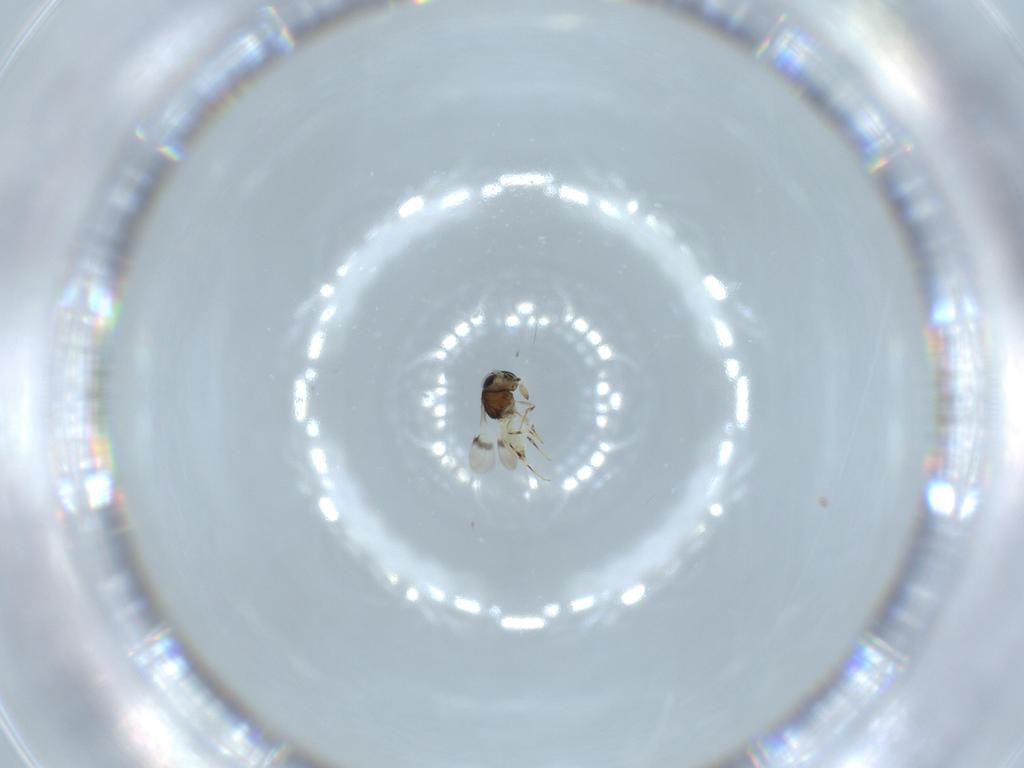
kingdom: Animalia
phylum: Arthropoda
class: Insecta
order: Hymenoptera
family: Scelionidae
